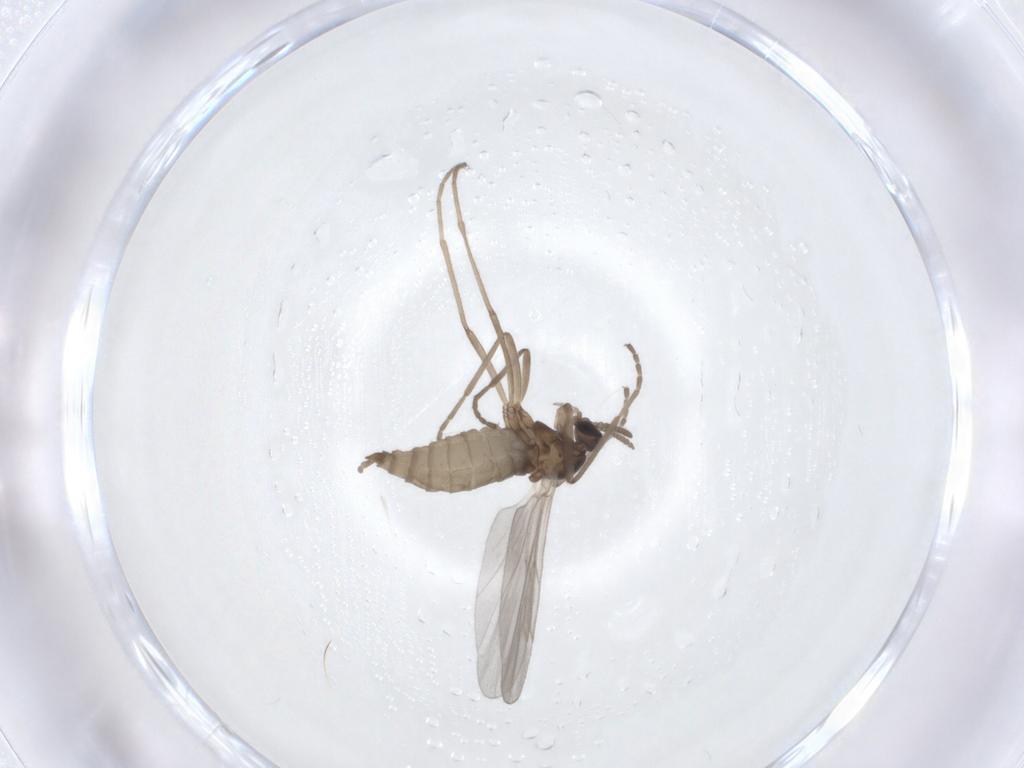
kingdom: Animalia
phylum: Arthropoda
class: Insecta
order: Diptera
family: Cecidomyiidae
